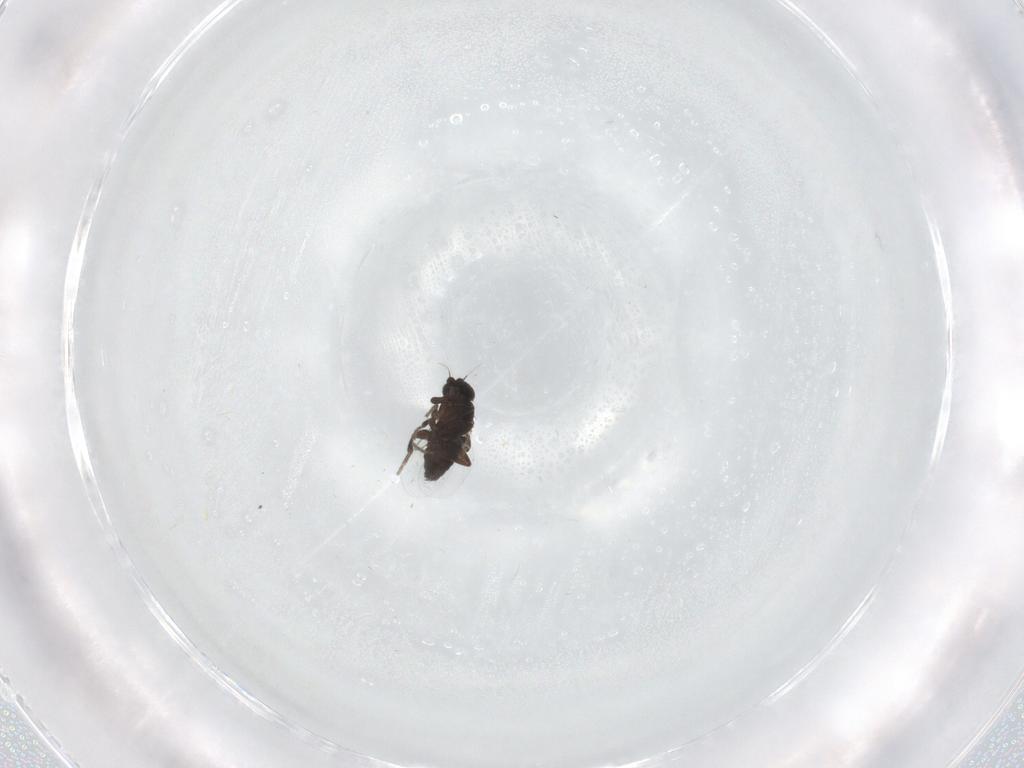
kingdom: Animalia
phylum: Arthropoda
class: Insecta
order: Diptera
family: Phoridae
